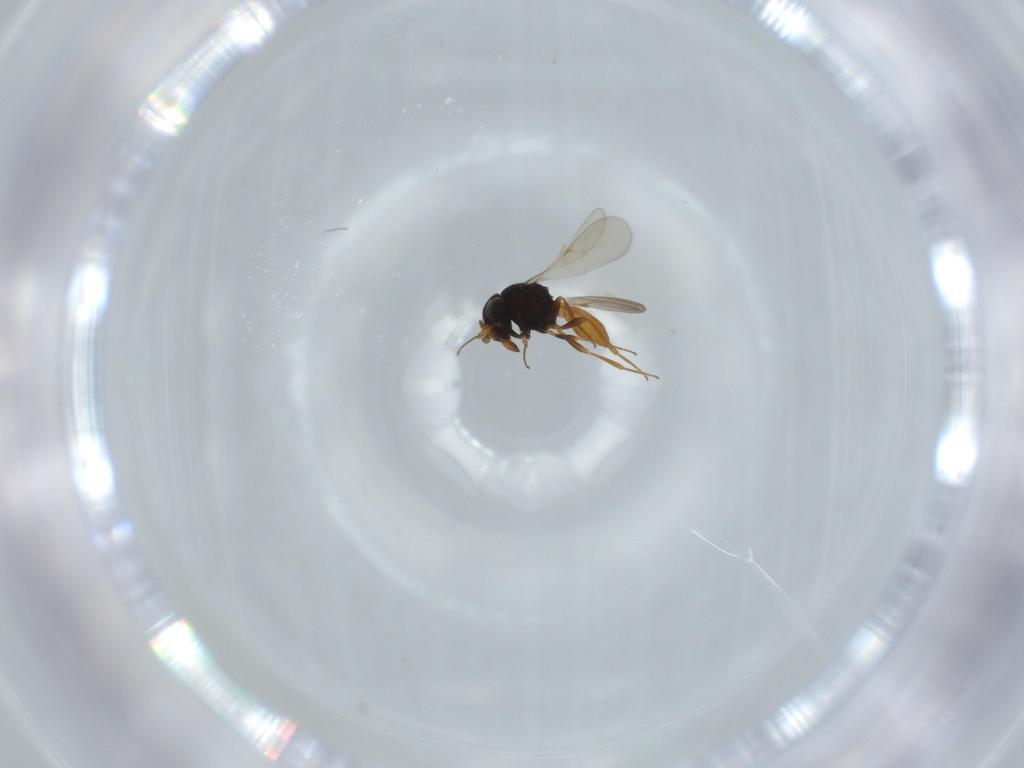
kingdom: Animalia
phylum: Arthropoda
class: Insecta
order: Hymenoptera
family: Scelionidae
